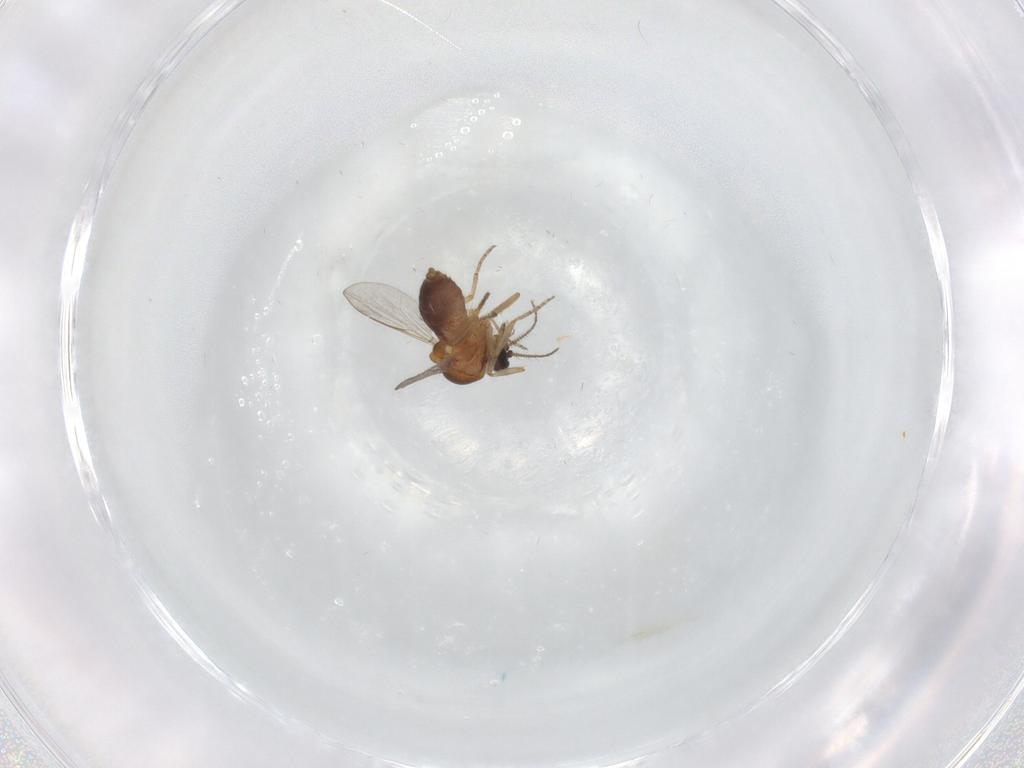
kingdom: Animalia
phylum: Arthropoda
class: Insecta
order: Diptera
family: Ceratopogonidae
